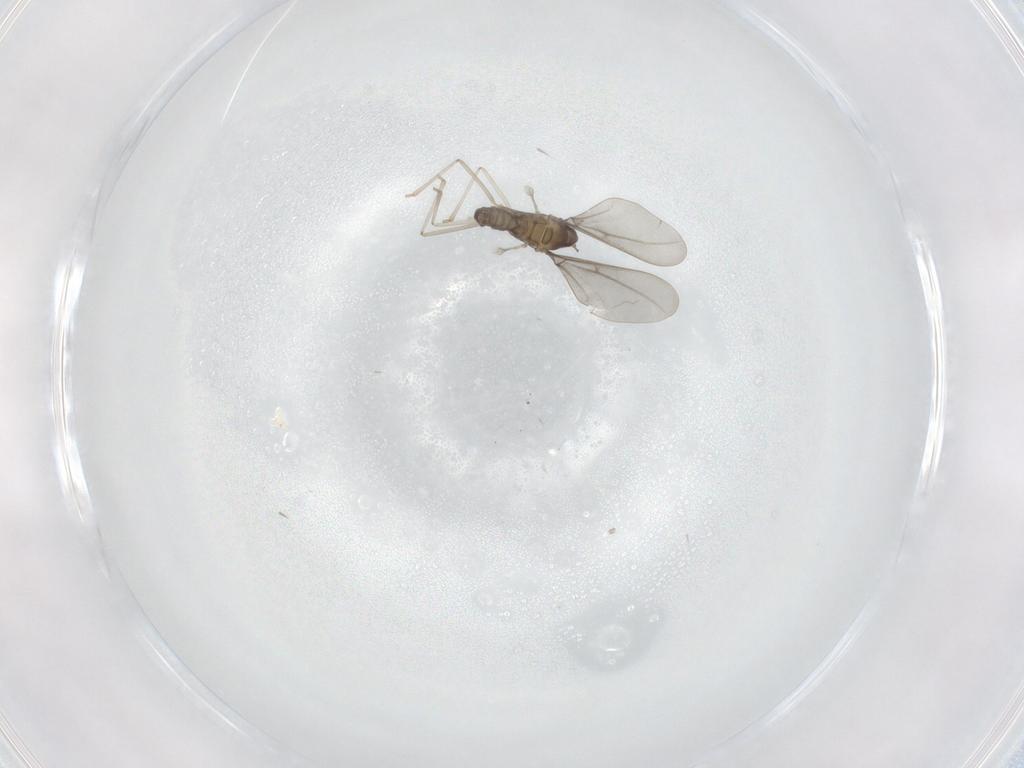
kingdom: Animalia
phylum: Arthropoda
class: Insecta
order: Diptera
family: Cecidomyiidae
